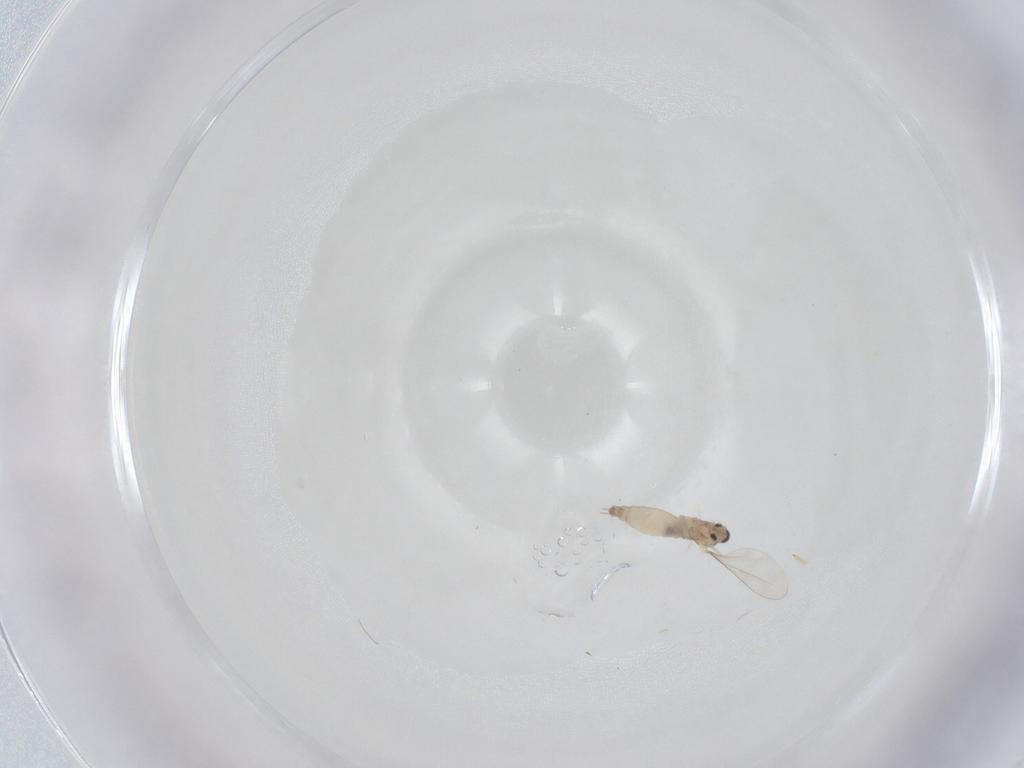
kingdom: Animalia
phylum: Arthropoda
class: Insecta
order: Diptera
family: Cecidomyiidae
